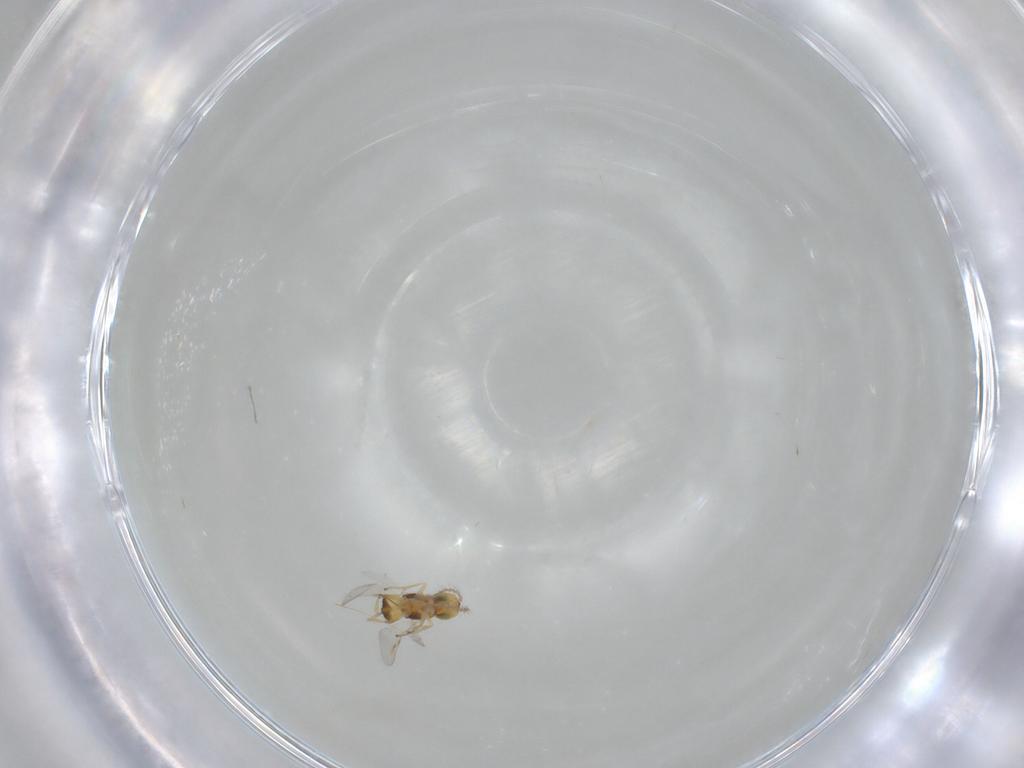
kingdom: Animalia
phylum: Arthropoda
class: Insecta
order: Hymenoptera
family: Encyrtidae
